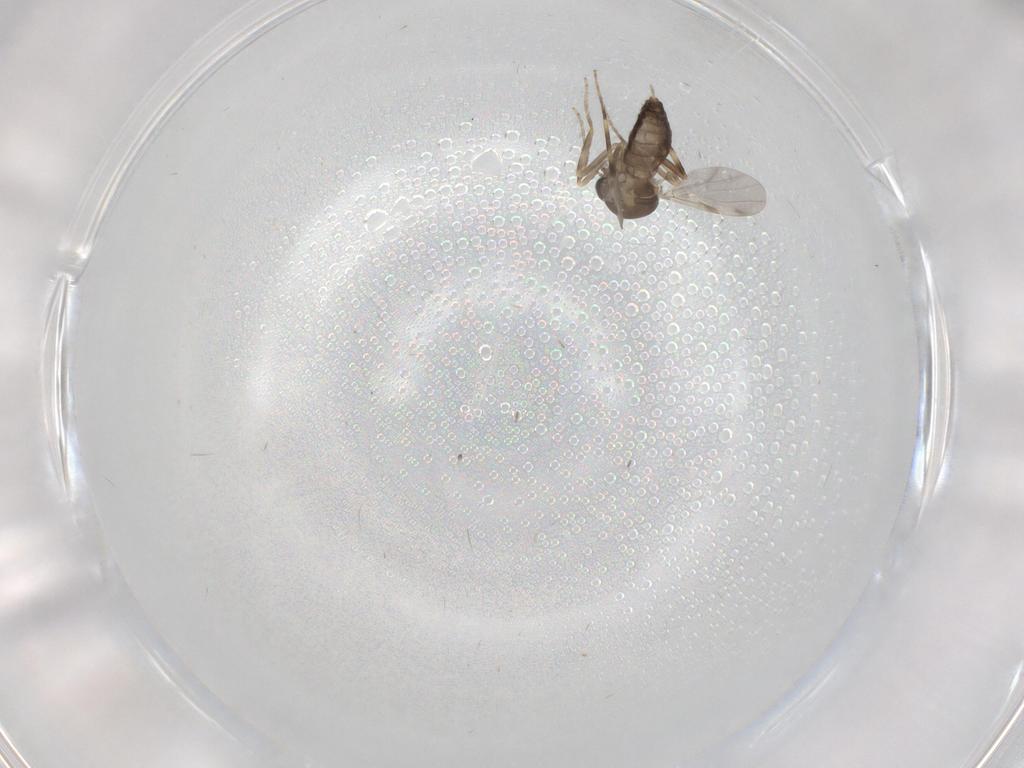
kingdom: Animalia
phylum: Arthropoda
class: Insecta
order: Diptera
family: Ceratopogonidae
